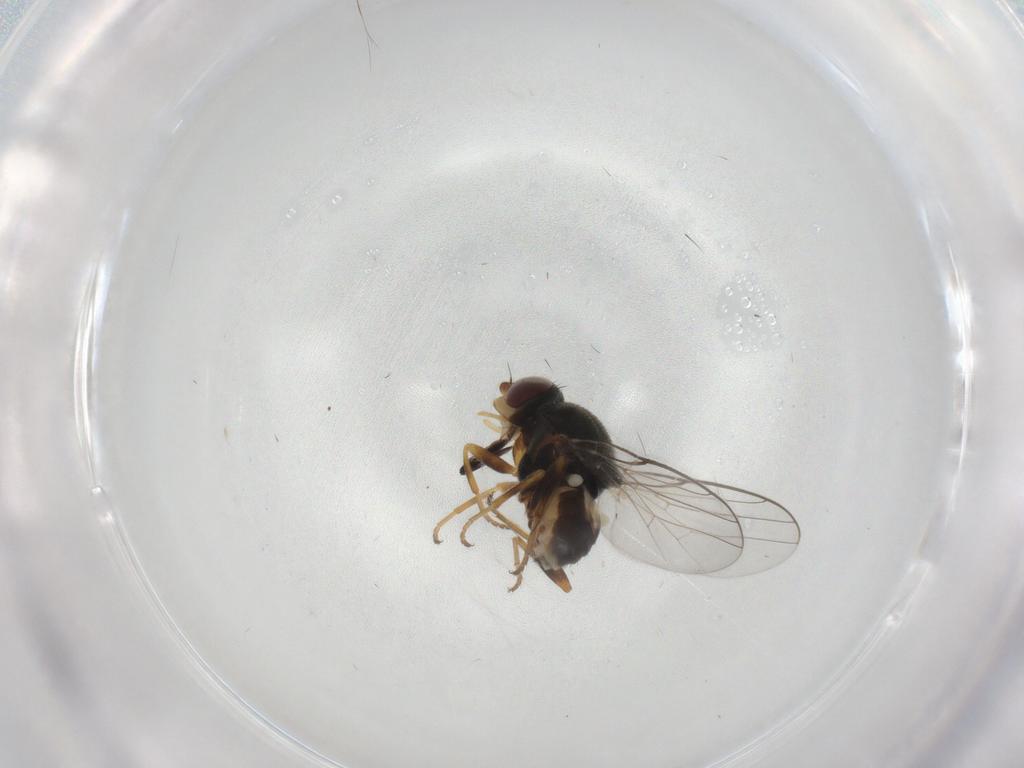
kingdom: Animalia
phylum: Arthropoda
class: Insecta
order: Diptera
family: Chloropidae
